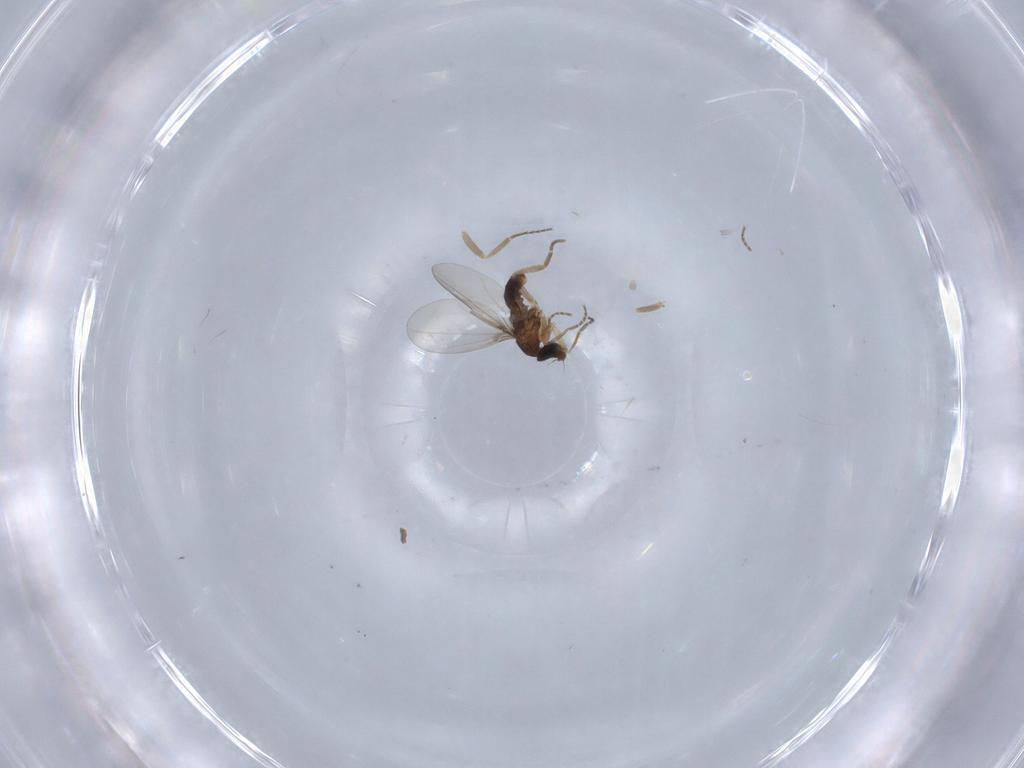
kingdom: Animalia
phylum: Arthropoda
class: Insecta
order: Diptera
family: Phoridae
